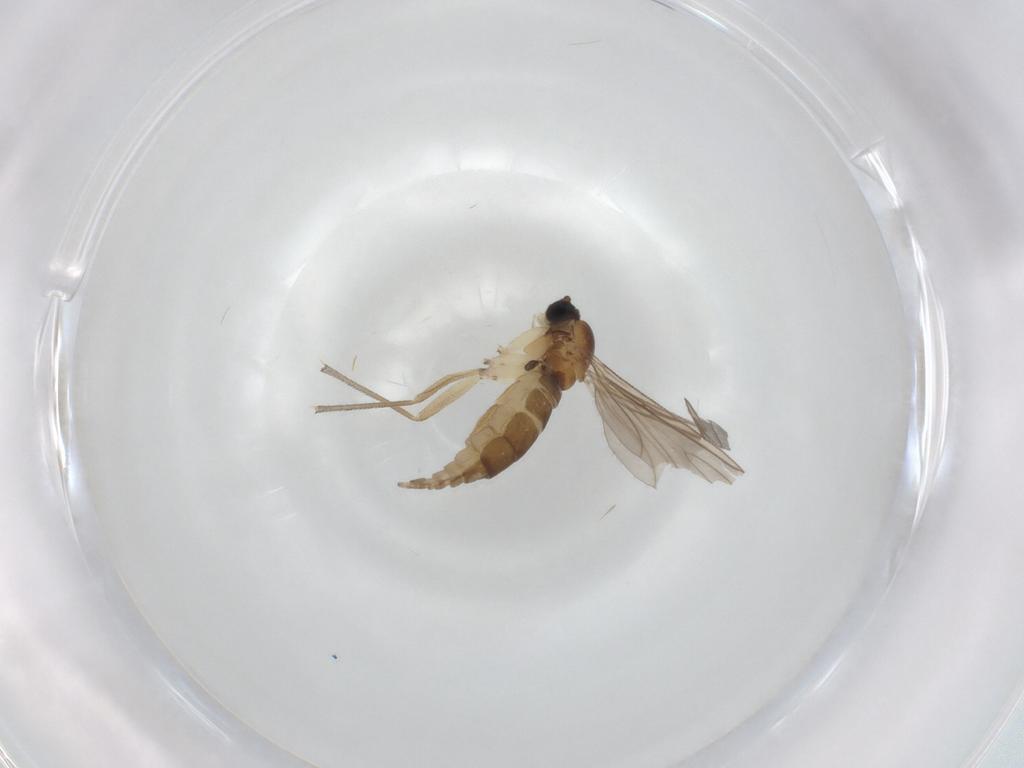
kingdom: Animalia
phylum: Arthropoda
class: Insecta
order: Diptera
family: Sciaridae
